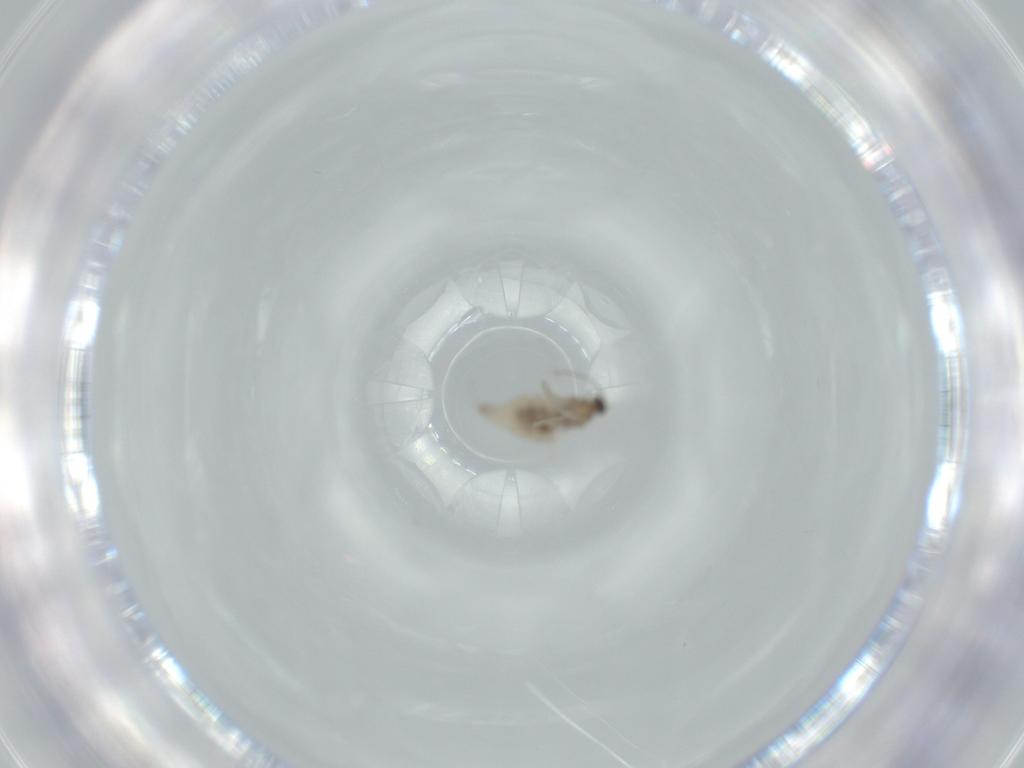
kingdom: Animalia
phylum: Arthropoda
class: Insecta
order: Diptera
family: Cecidomyiidae
